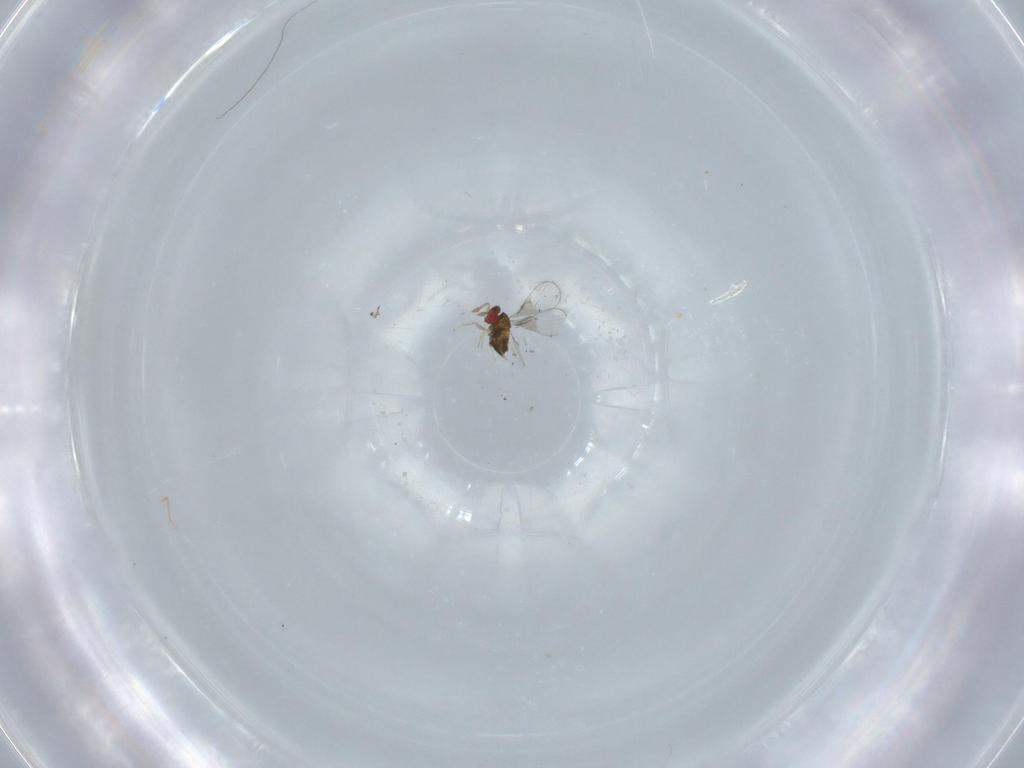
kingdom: Animalia
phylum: Arthropoda
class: Insecta
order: Hymenoptera
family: Trichogrammatidae
